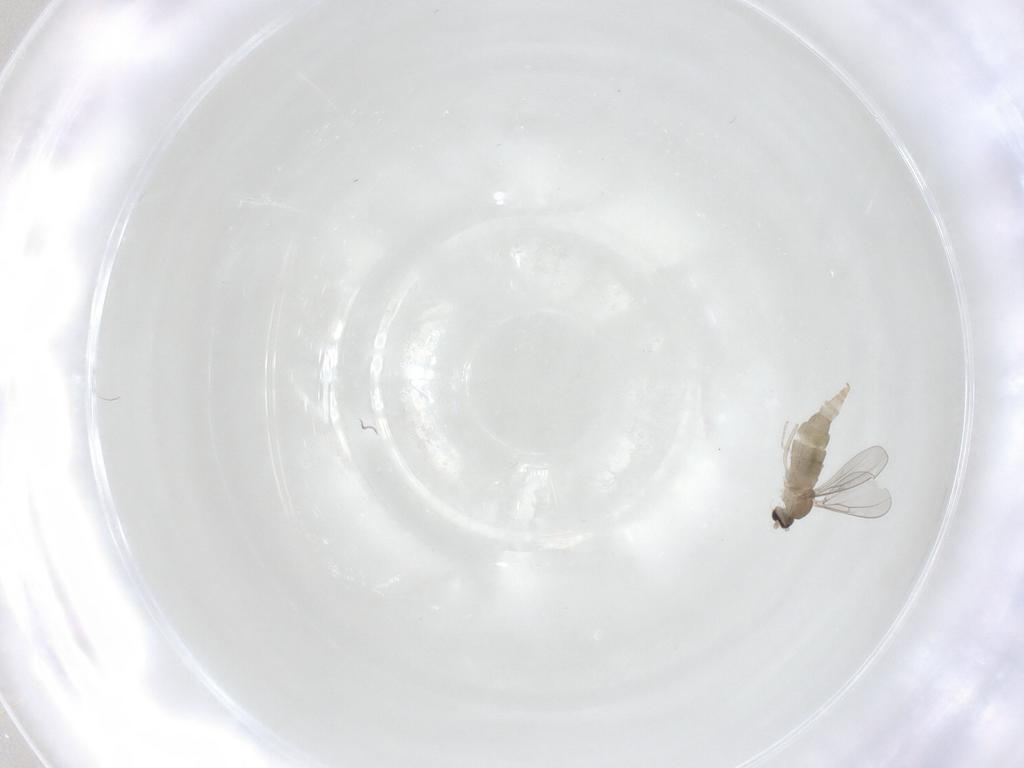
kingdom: Animalia
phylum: Arthropoda
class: Insecta
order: Diptera
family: Cecidomyiidae
